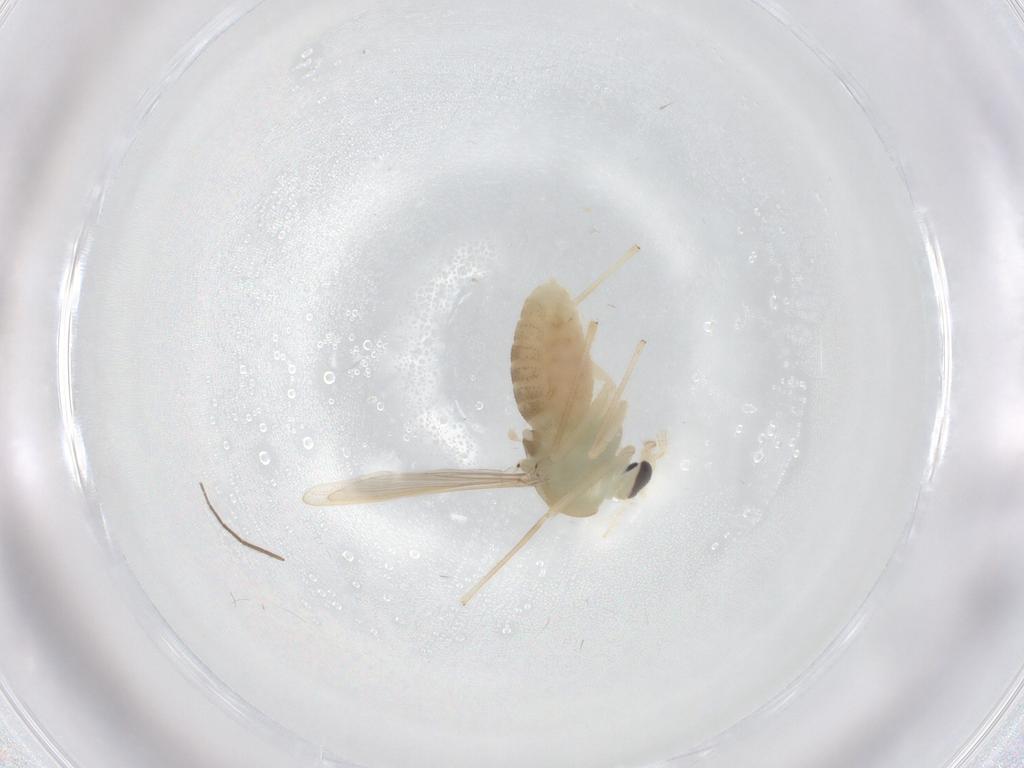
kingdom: Animalia
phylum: Arthropoda
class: Insecta
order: Diptera
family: Chironomidae
